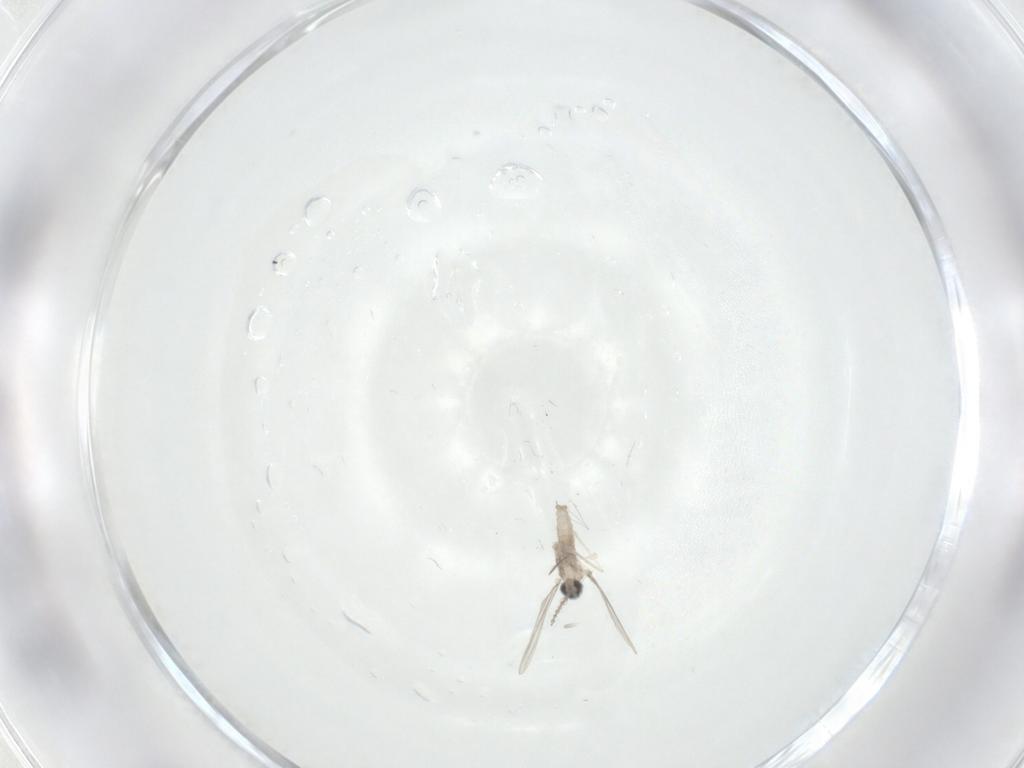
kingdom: Animalia
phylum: Arthropoda
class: Insecta
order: Diptera
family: Cecidomyiidae
